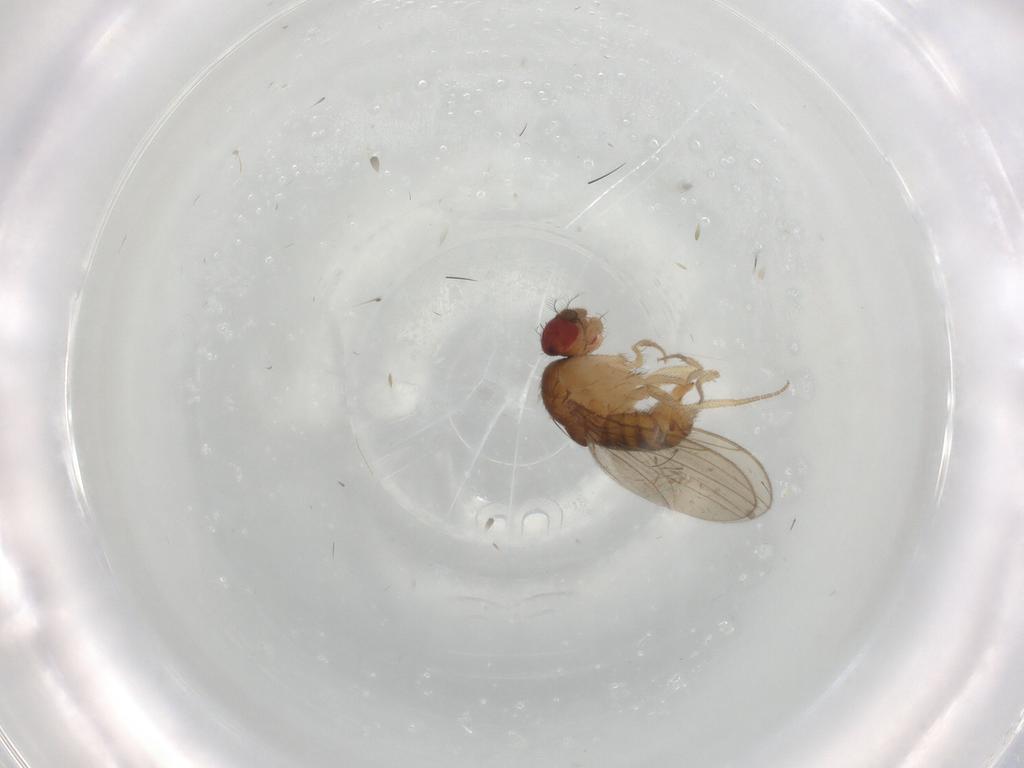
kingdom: Animalia
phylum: Arthropoda
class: Insecta
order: Diptera
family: Drosophilidae
